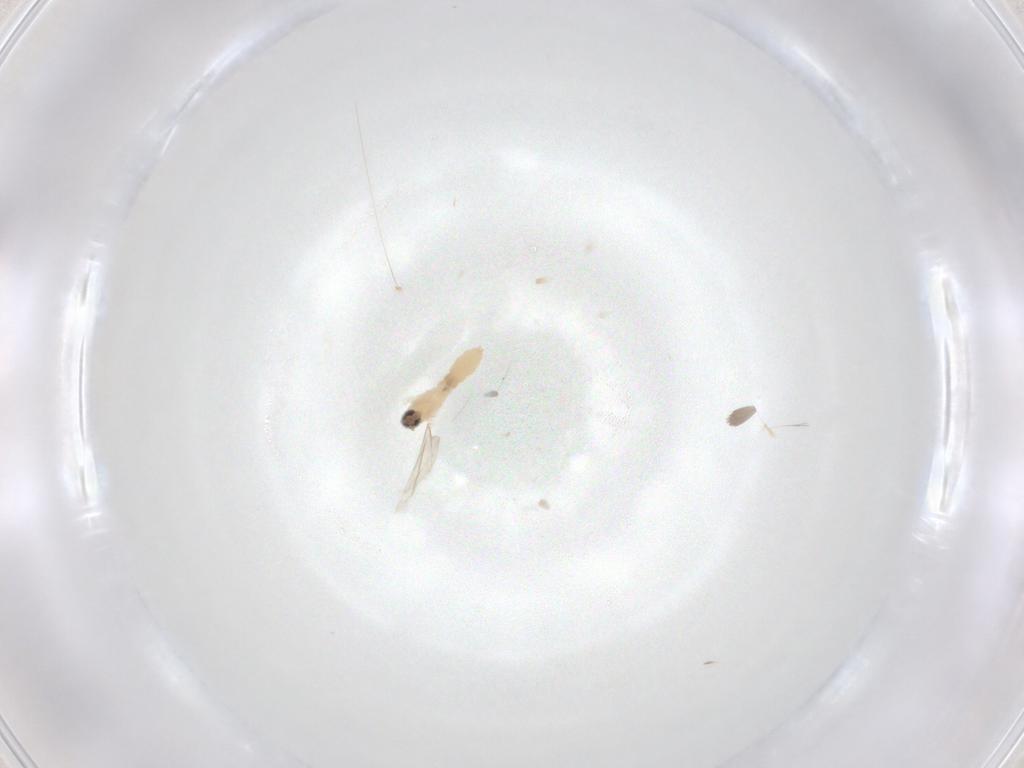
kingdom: Animalia
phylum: Arthropoda
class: Insecta
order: Diptera
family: Cecidomyiidae
